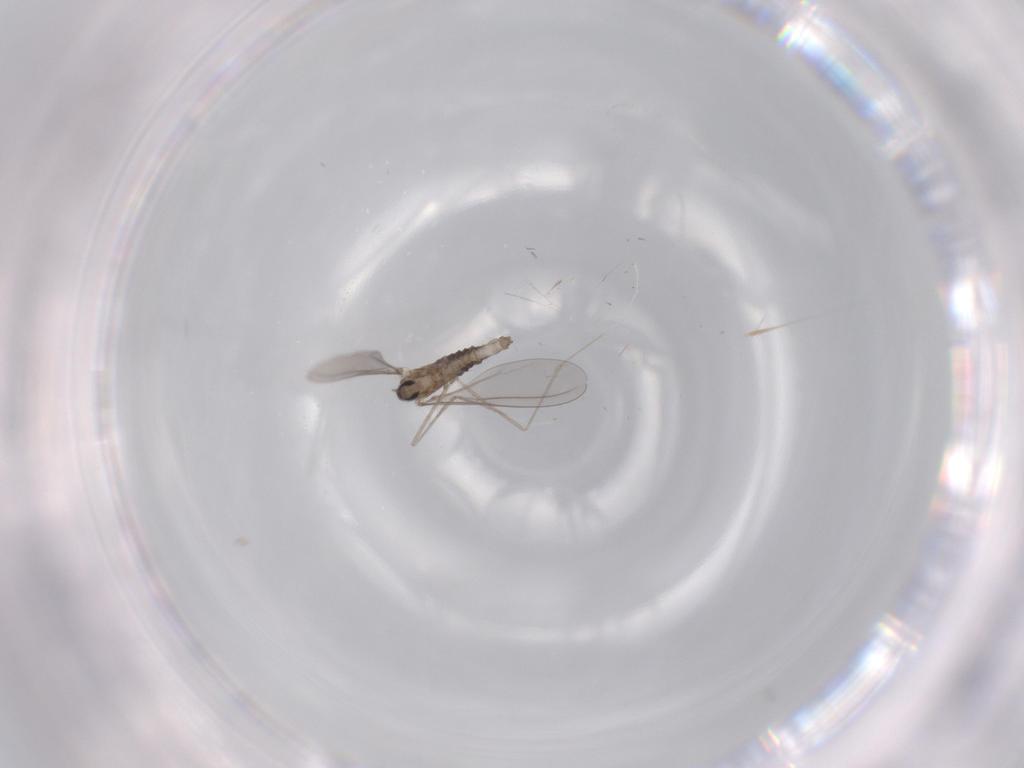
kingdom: Animalia
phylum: Arthropoda
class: Insecta
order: Diptera
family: Cecidomyiidae
